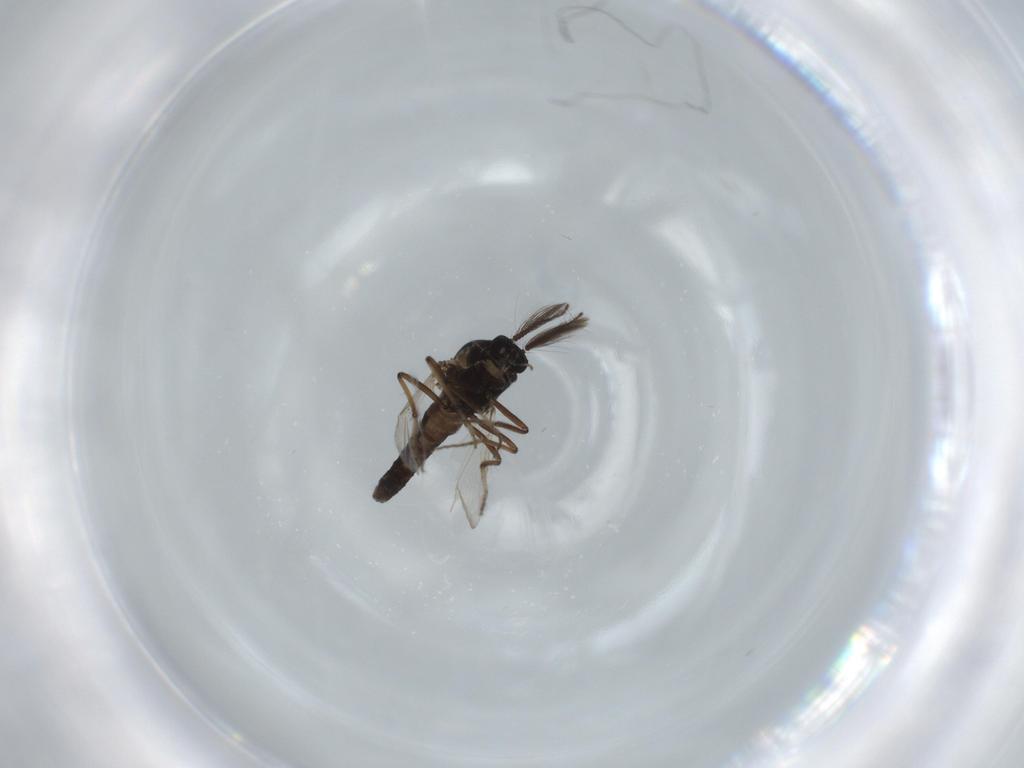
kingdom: Animalia
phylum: Arthropoda
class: Insecta
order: Diptera
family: Ceratopogonidae
